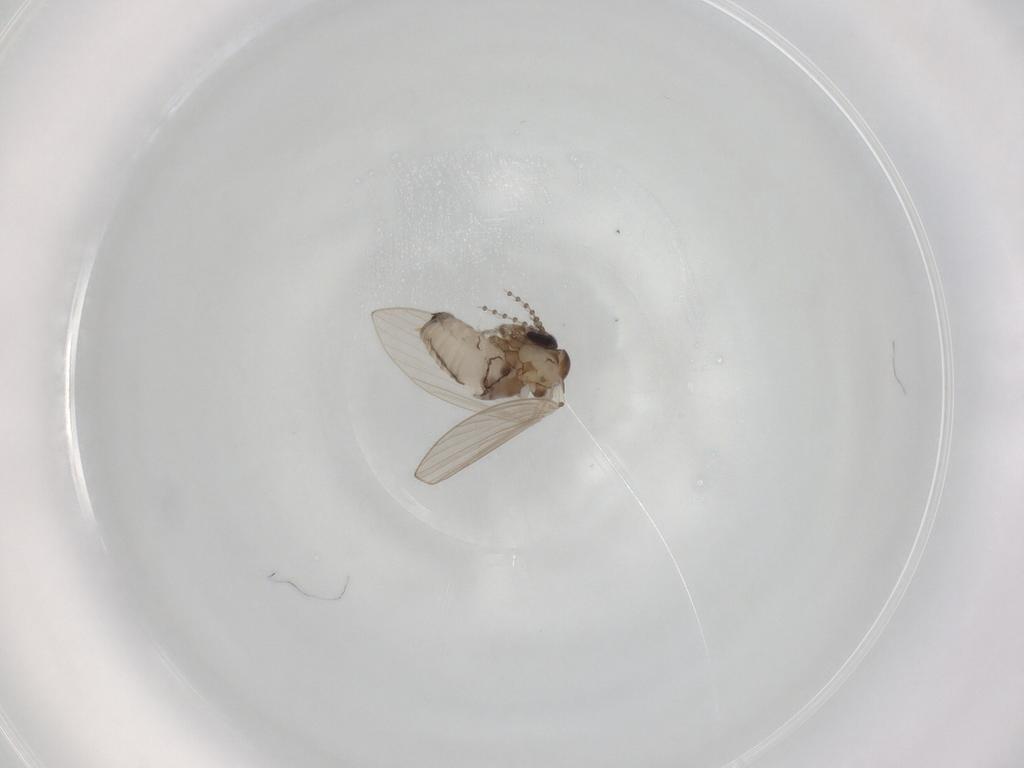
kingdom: Animalia
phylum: Arthropoda
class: Insecta
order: Diptera
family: Psychodidae
